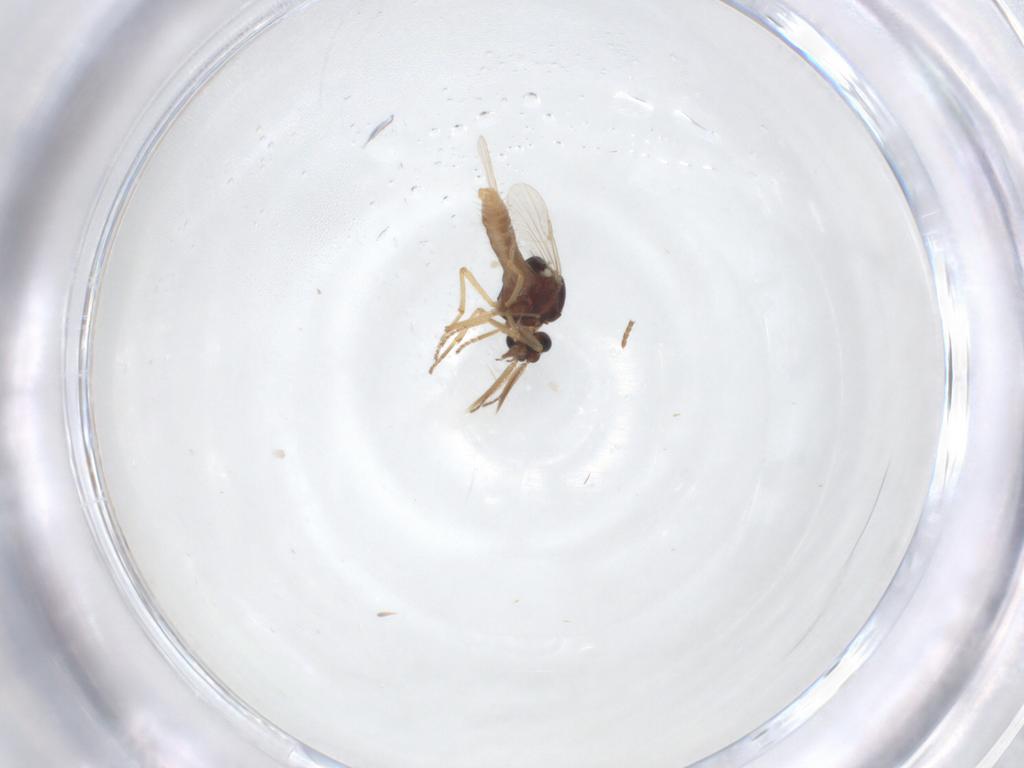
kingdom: Animalia
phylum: Arthropoda
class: Insecta
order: Diptera
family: Ceratopogonidae
